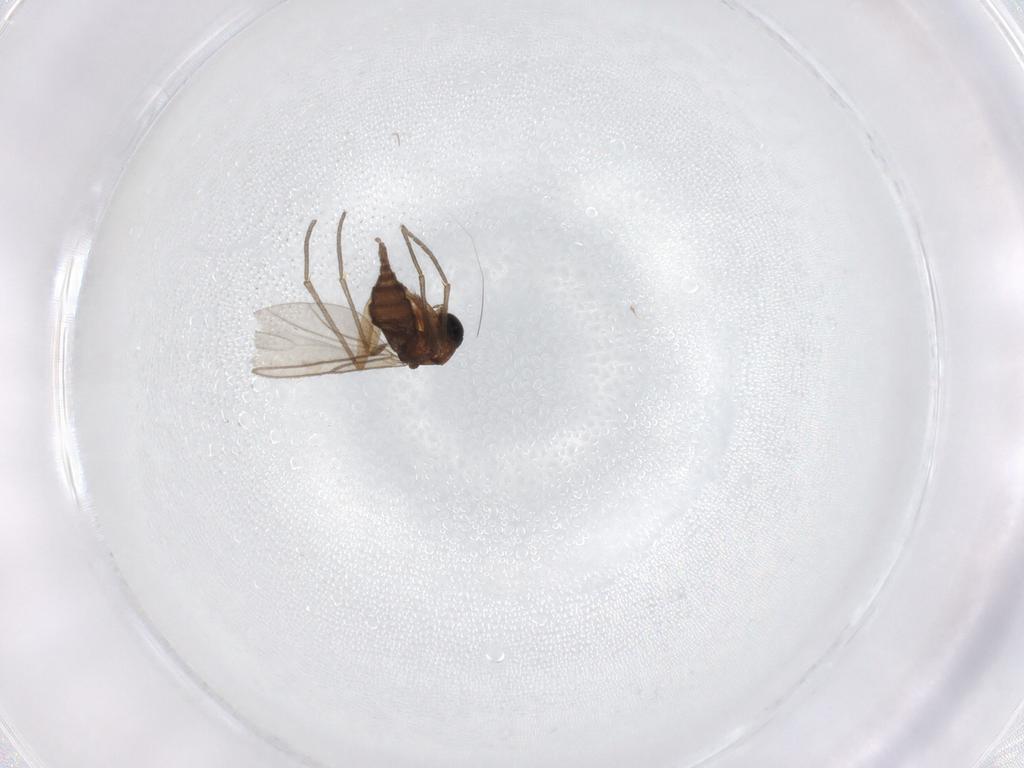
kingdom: Animalia
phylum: Arthropoda
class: Insecta
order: Diptera
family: Sciaridae
